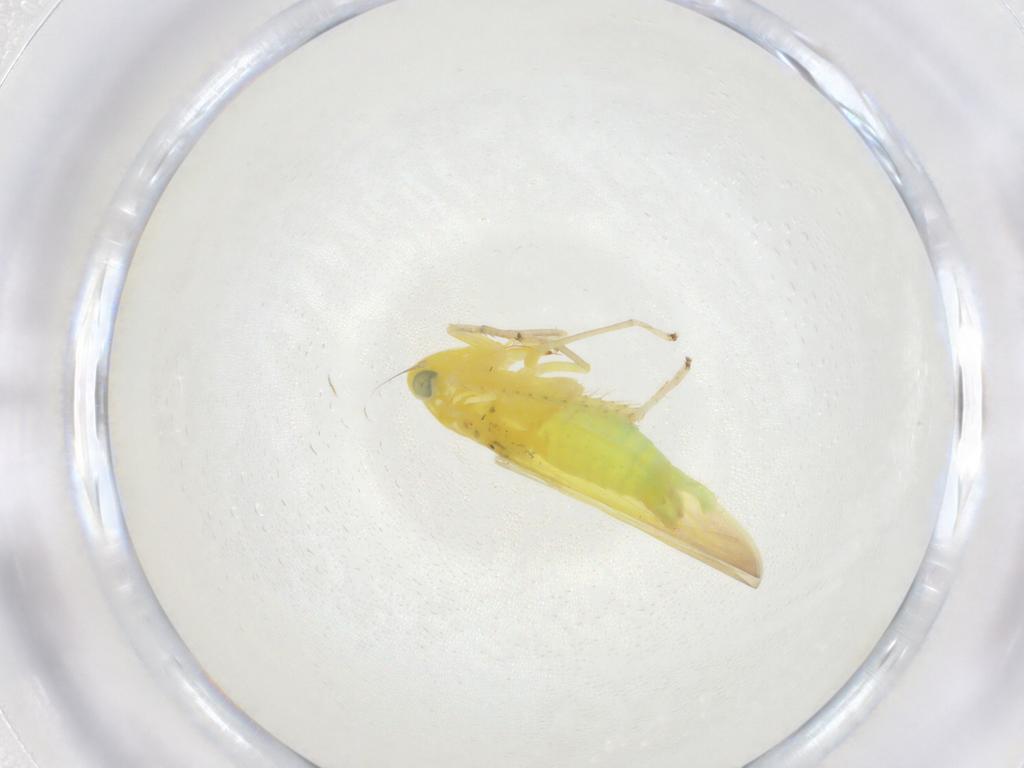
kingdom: Animalia
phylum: Arthropoda
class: Insecta
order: Hemiptera
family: Cicadellidae
